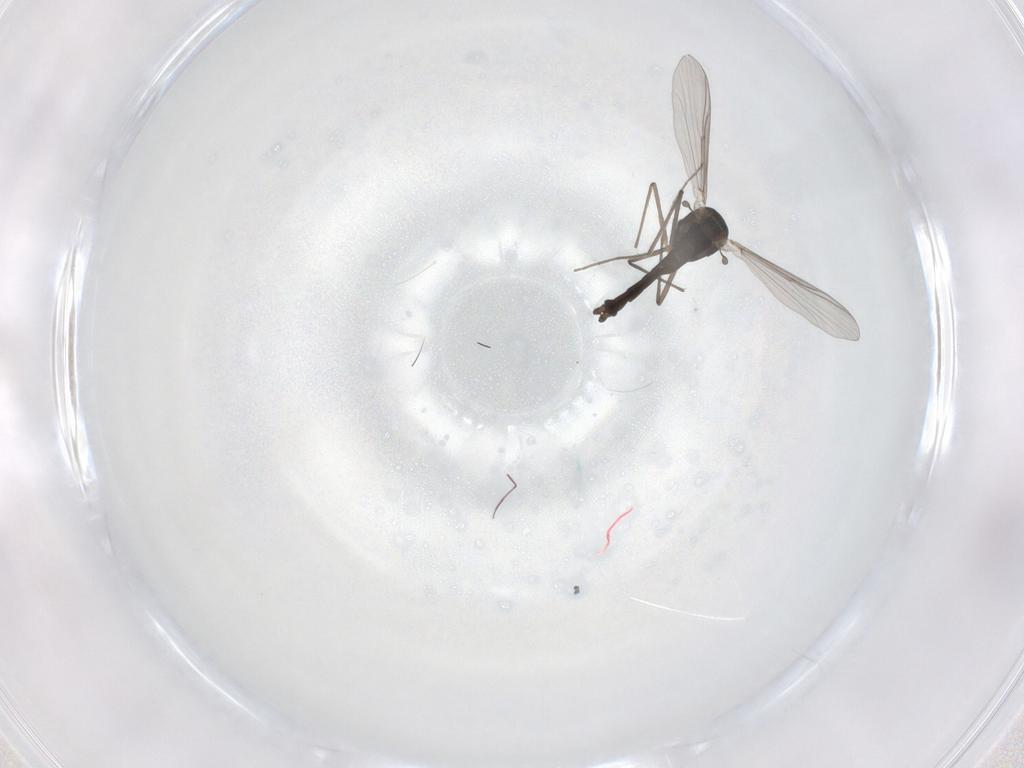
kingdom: Animalia
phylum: Arthropoda
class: Insecta
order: Diptera
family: Chironomidae
